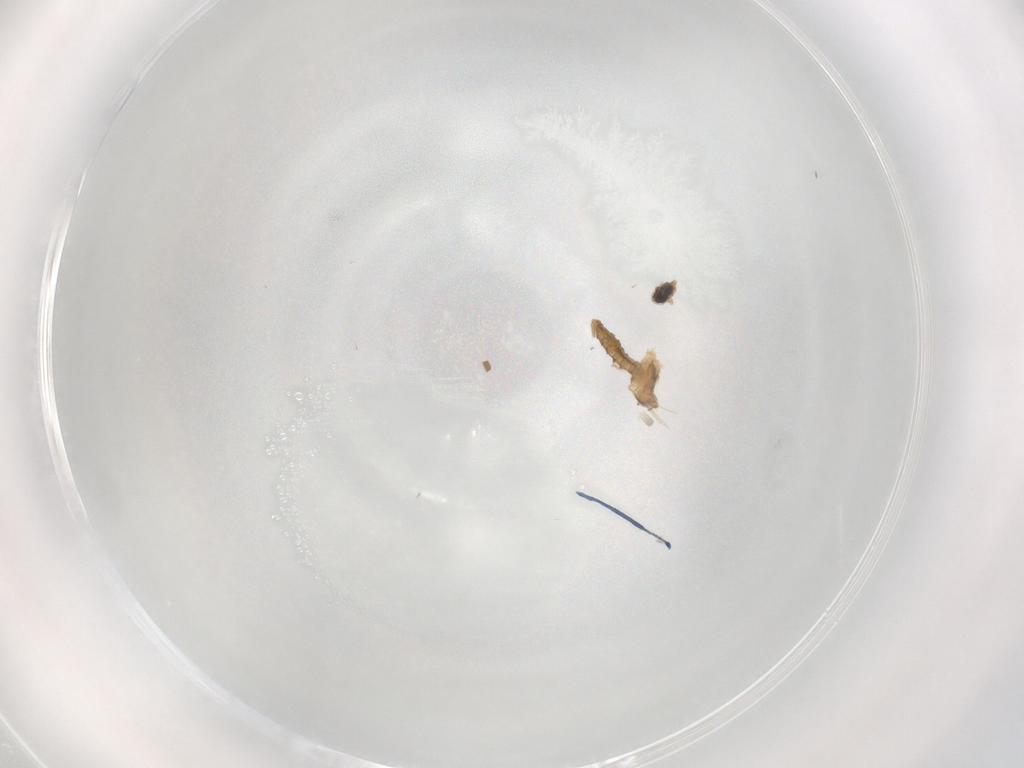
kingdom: Animalia
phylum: Arthropoda
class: Insecta
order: Diptera
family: Cecidomyiidae
